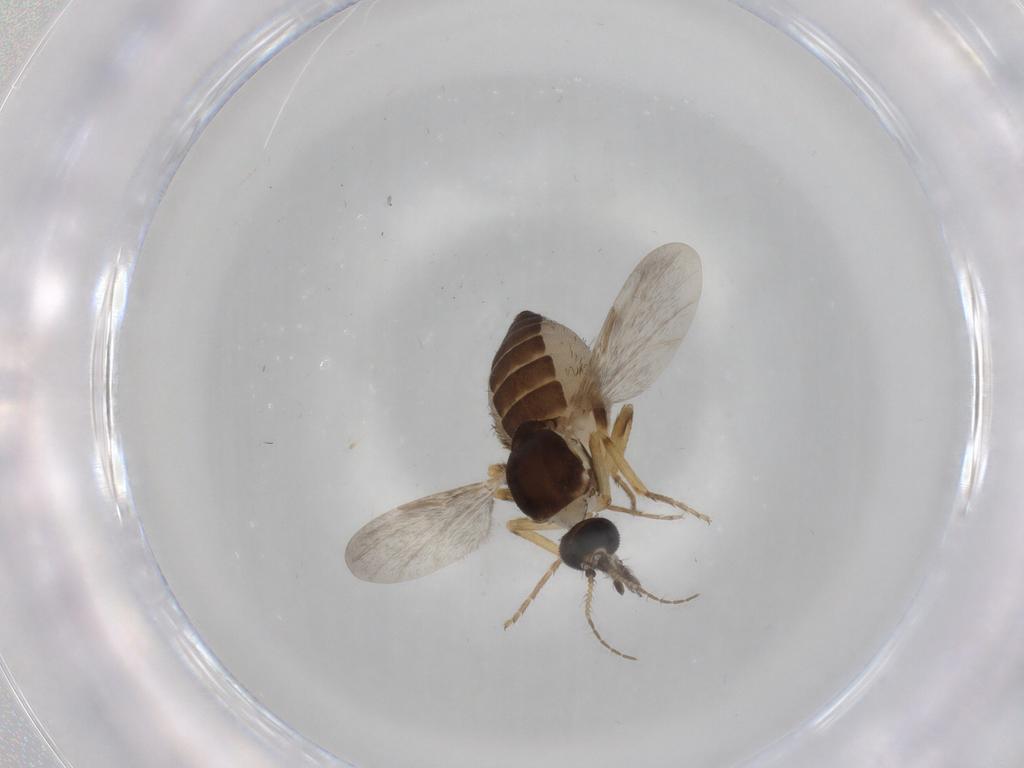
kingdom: Animalia
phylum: Arthropoda
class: Insecta
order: Diptera
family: Ceratopogonidae
